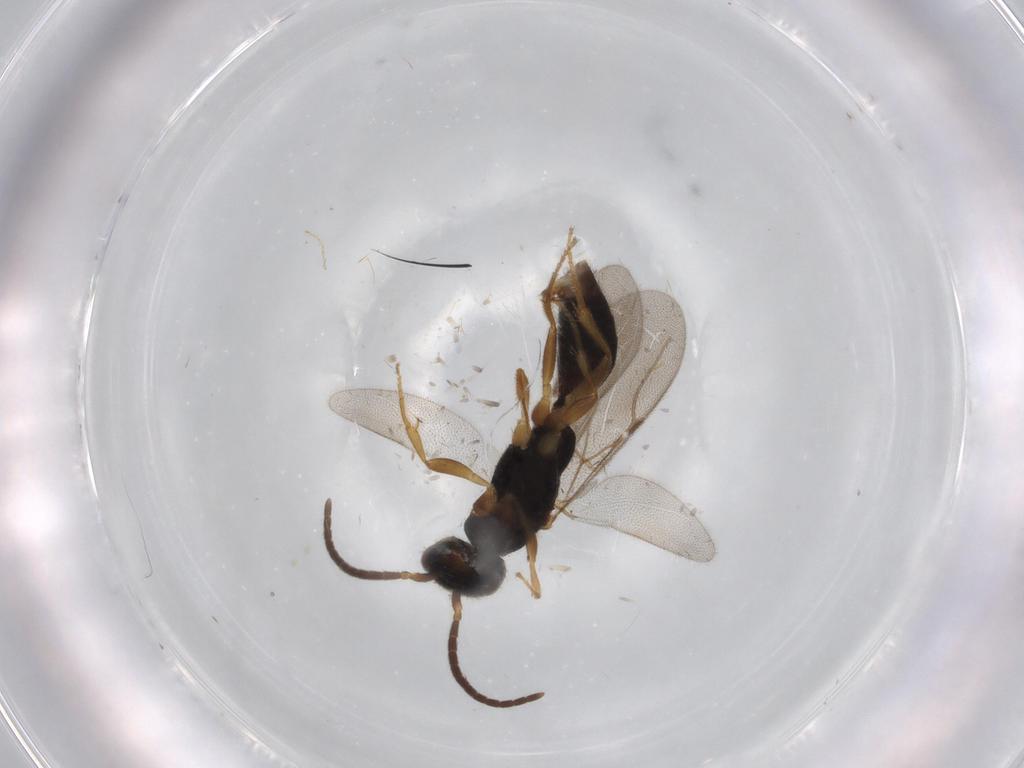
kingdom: Animalia
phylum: Arthropoda
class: Insecta
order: Hymenoptera
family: Bethylidae
